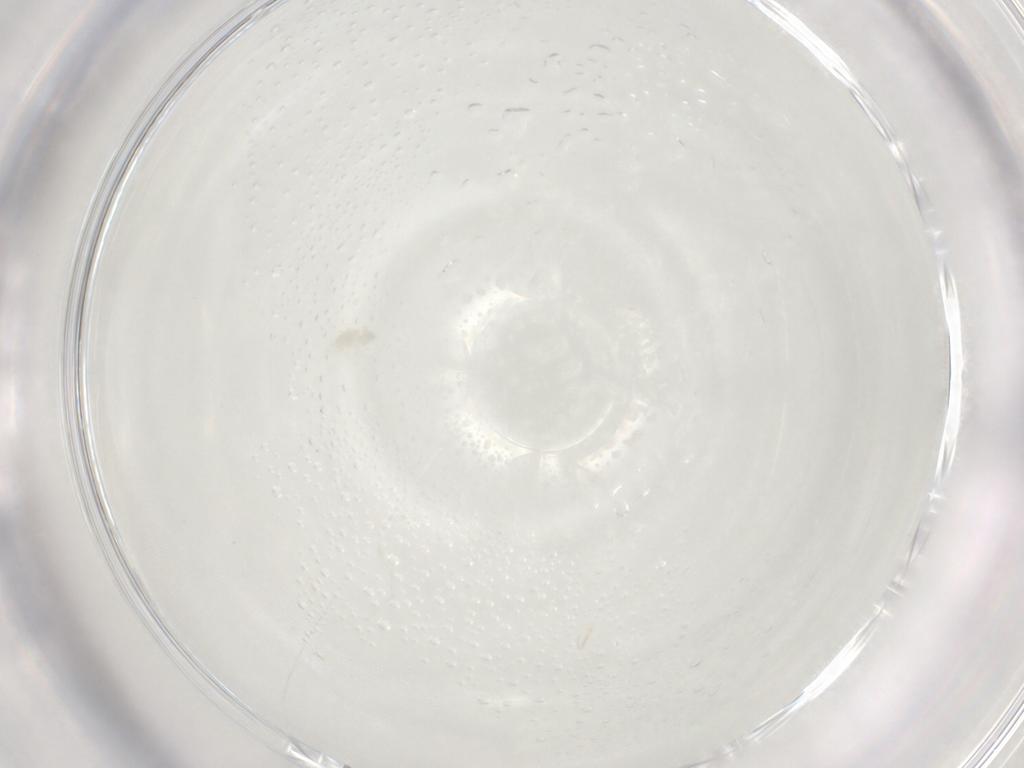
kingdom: Animalia
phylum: Arthropoda
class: Arachnida
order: Trombidiformes
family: Eupodidae
